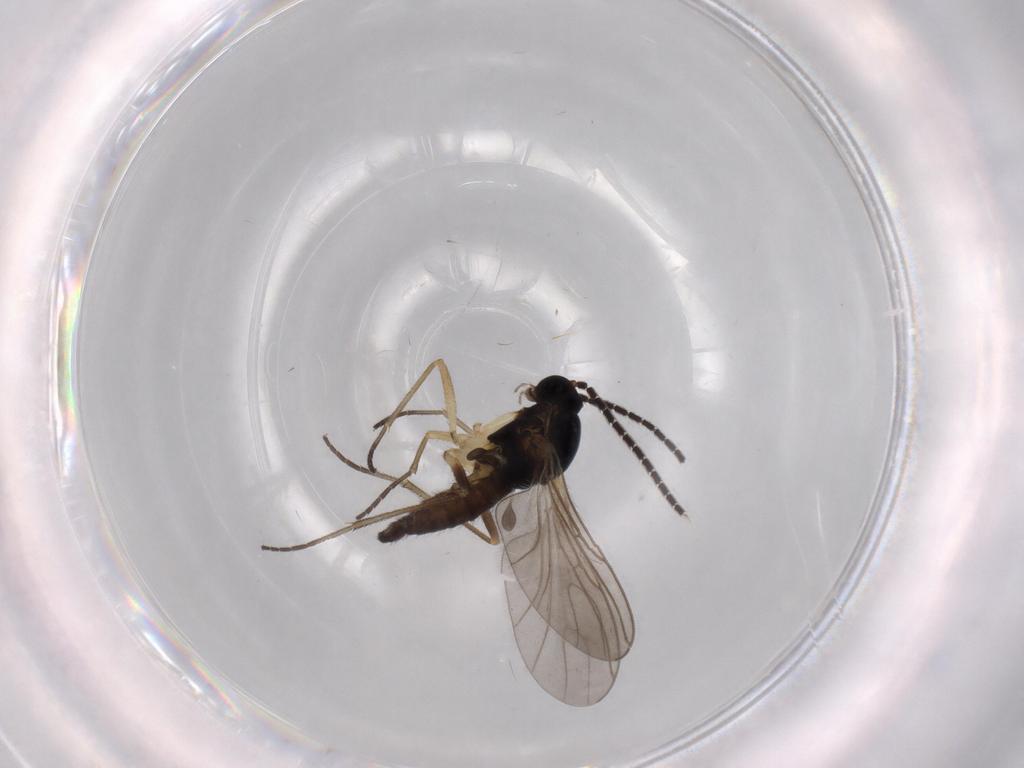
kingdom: Animalia
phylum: Arthropoda
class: Insecta
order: Diptera
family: Sciaridae
